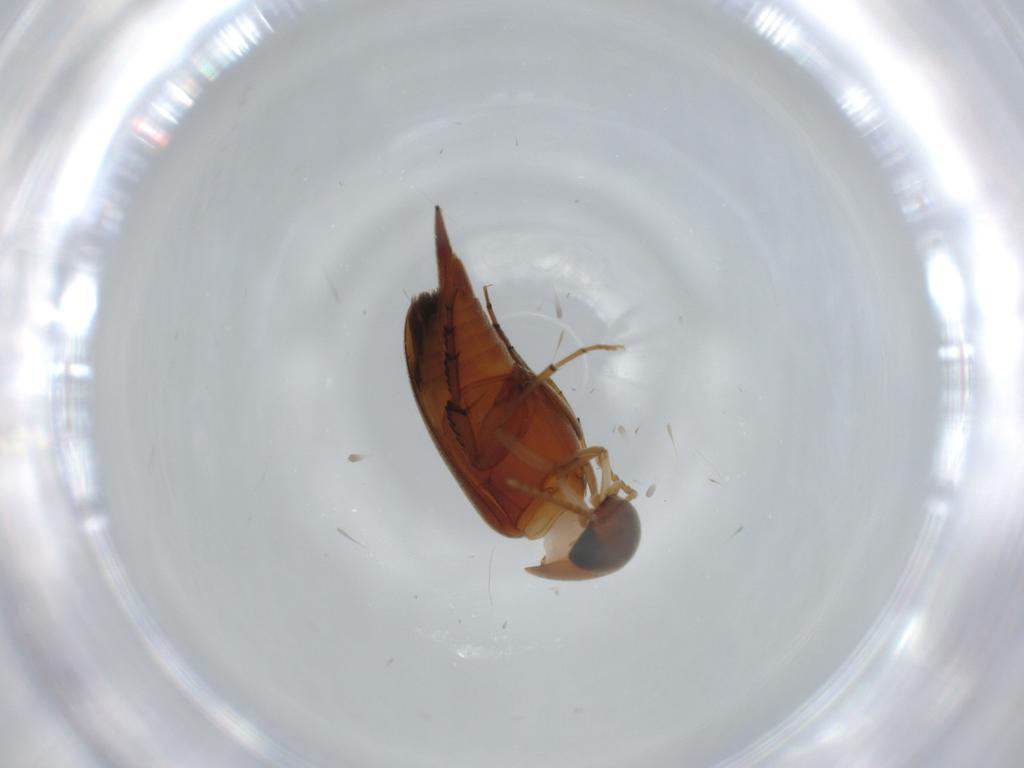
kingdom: Animalia
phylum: Arthropoda
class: Insecta
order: Coleoptera
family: Mordellidae
